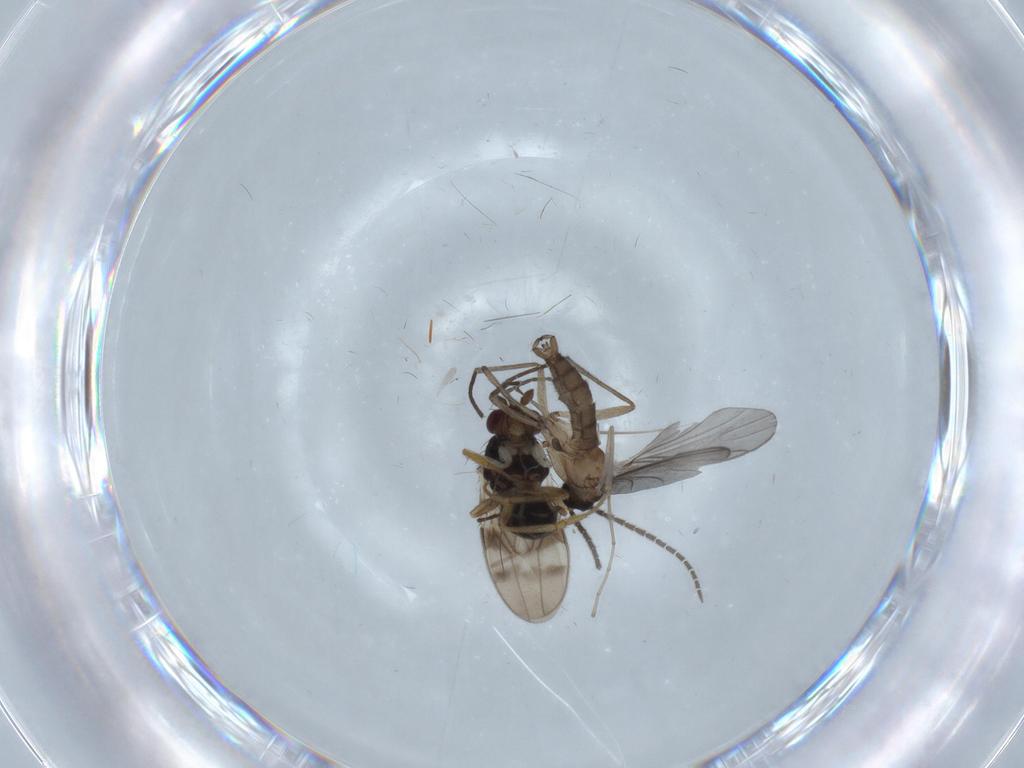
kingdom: Animalia
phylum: Arthropoda
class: Insecta
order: Diptera
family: Sphaeroceridae
